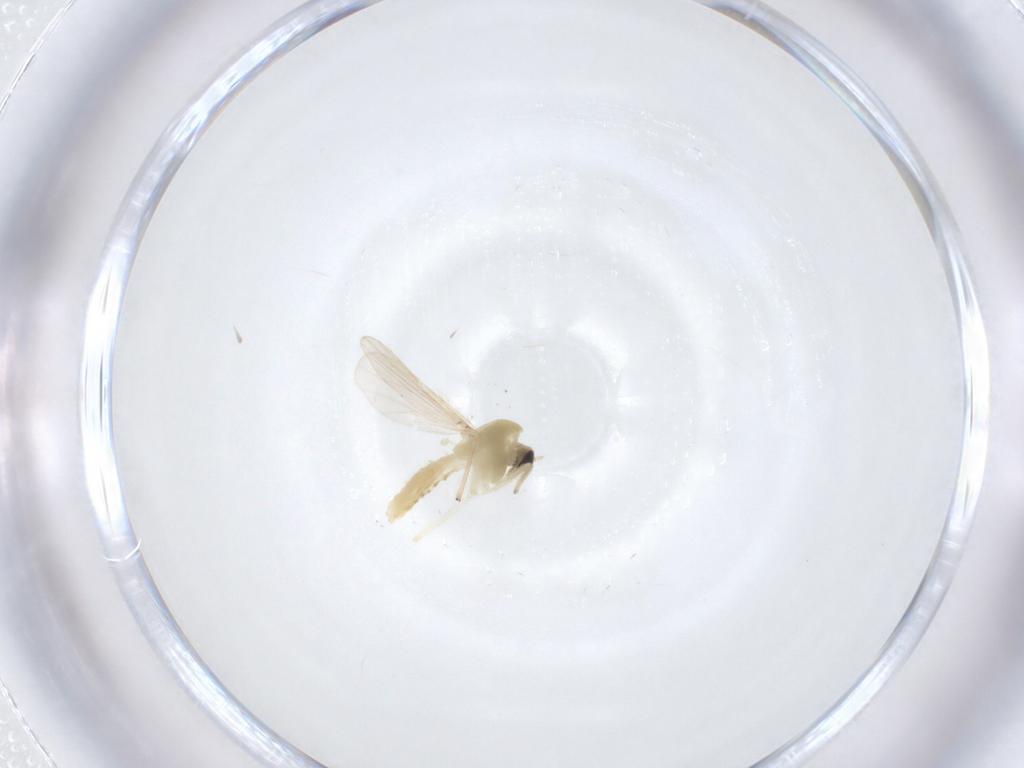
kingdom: Animalia
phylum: Arthropoda
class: Insecta
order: Diptera
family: Chironomidae
